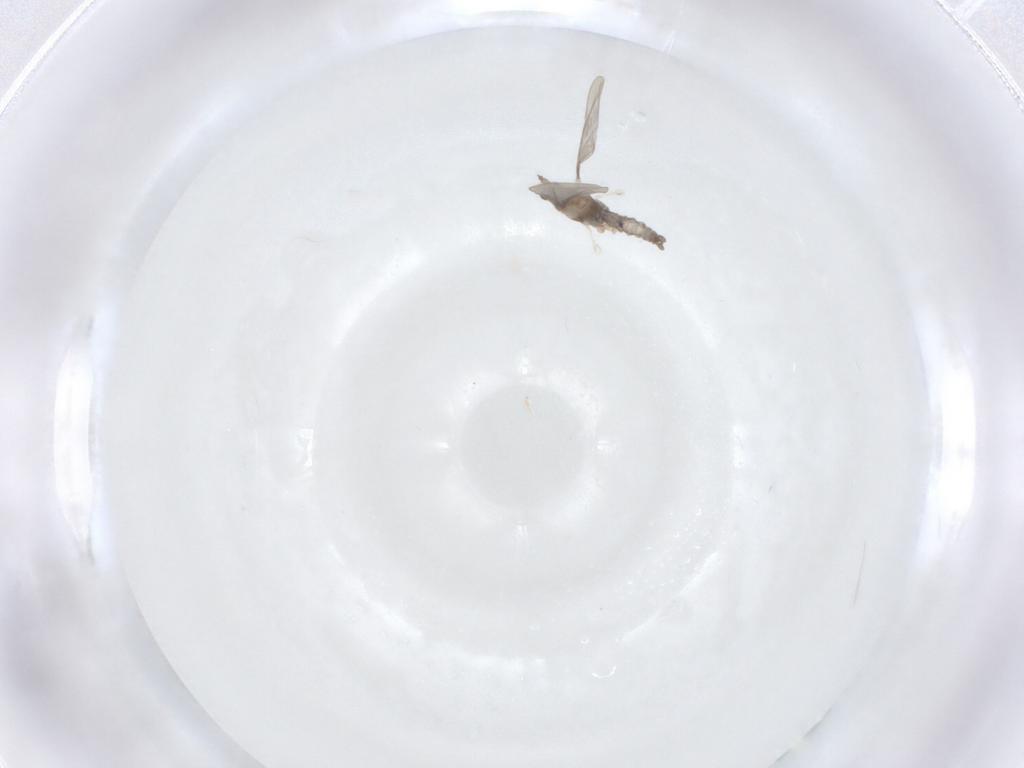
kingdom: Animalia
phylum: Arthropoda
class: Insecta
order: Diptera
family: Cecidomyiidae
